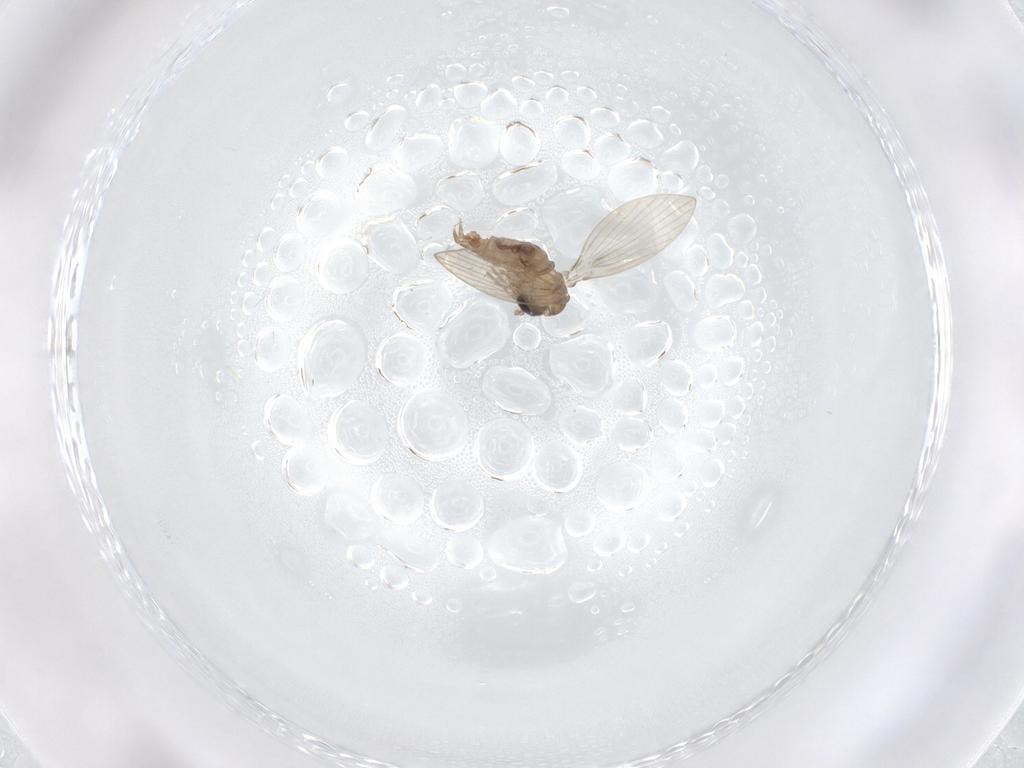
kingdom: Animalia
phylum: Arthropoda
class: Insecta
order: Diptera
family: Psychodidae
